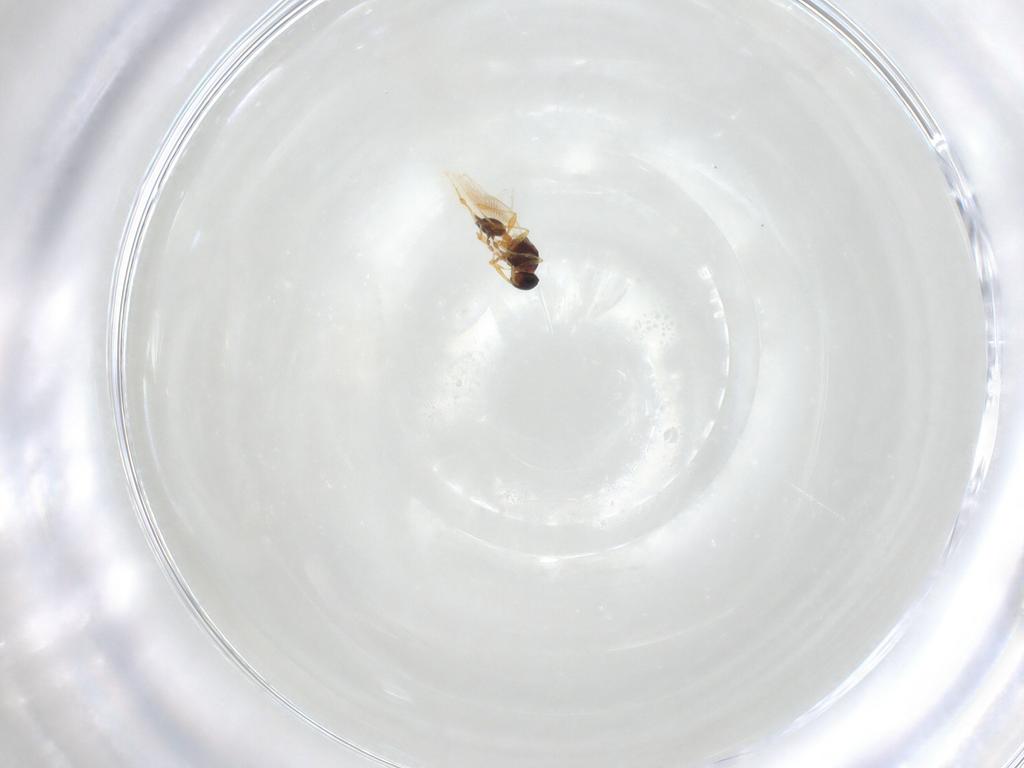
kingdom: Animalia
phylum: Arthropoda
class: Insecta
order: Hymenoptera
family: Platygastridae
